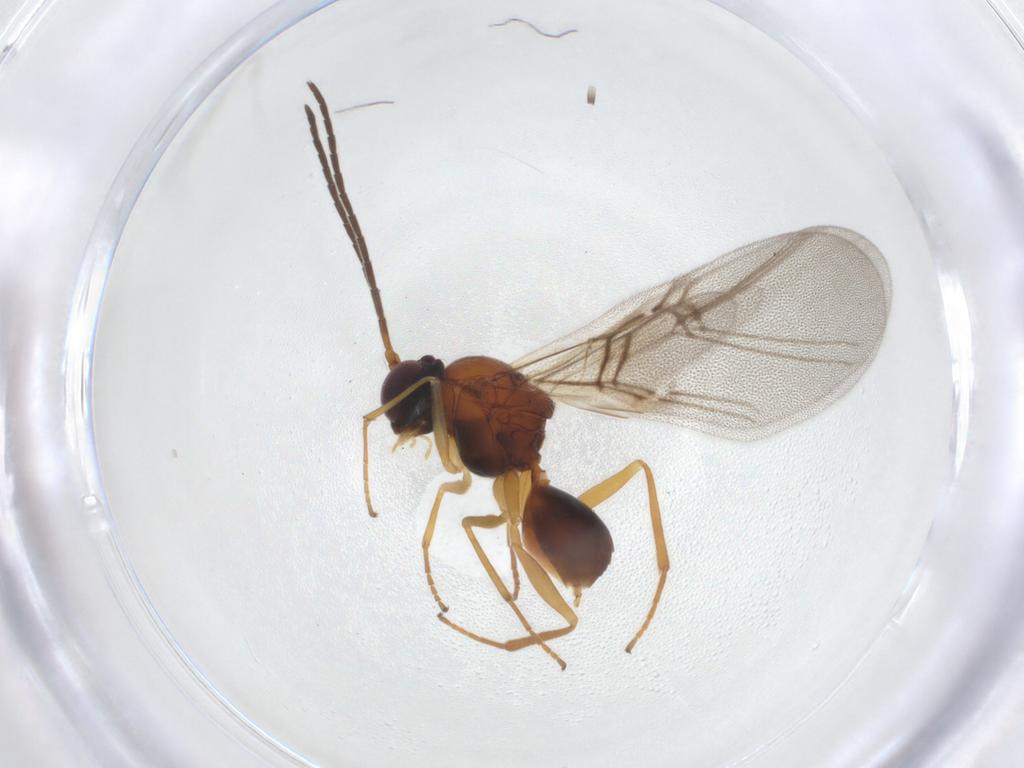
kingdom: Animalia
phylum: Arthropoda
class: Insecta
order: Hymenoptera
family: Cynipidae
